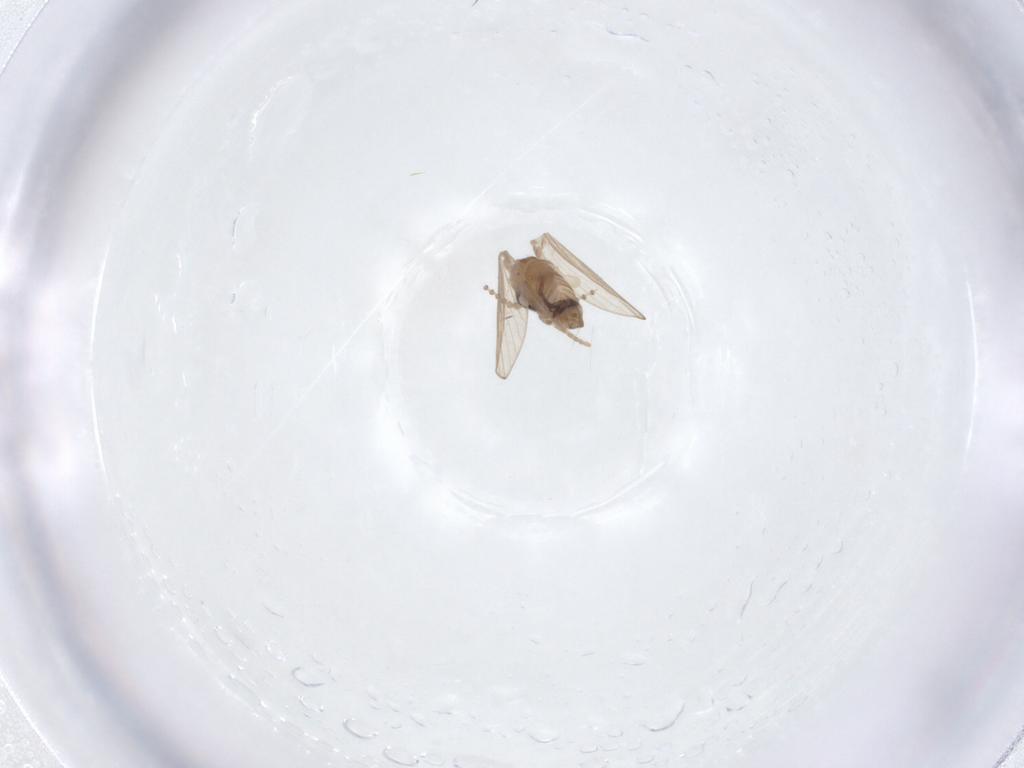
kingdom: Animalia
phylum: Arthropoda
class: Insecta
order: Diptera
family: Psychodidae
